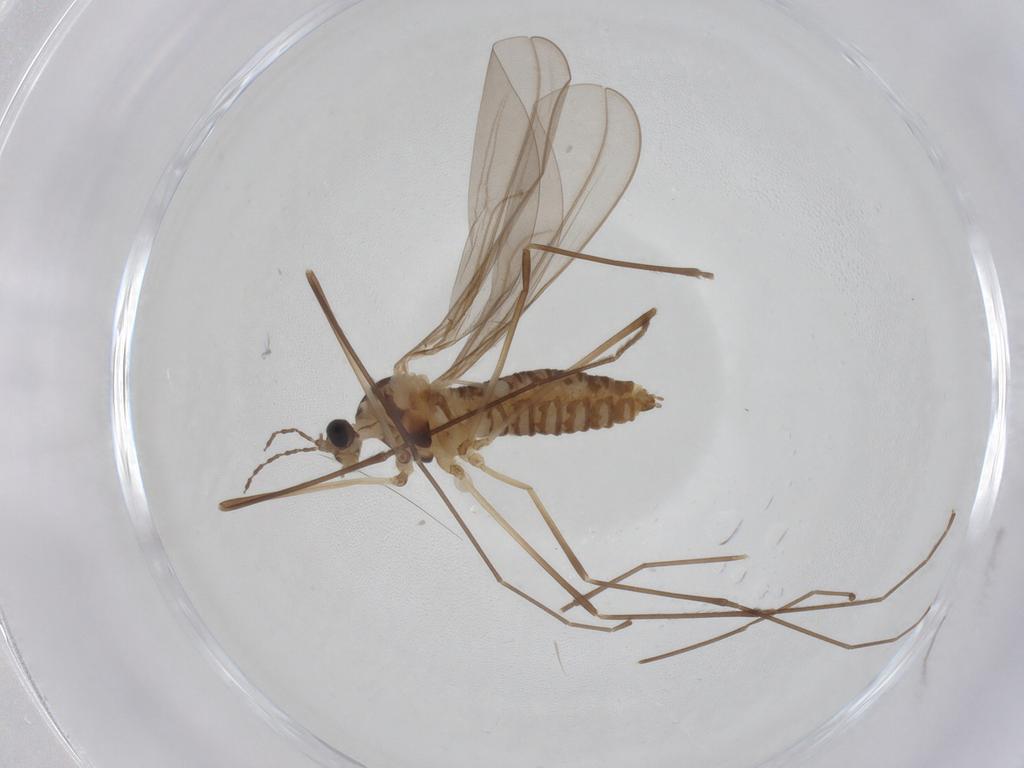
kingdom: Animalia
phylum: Arthropoda
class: Insecta
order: Diptera
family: Cecidomyiidae
